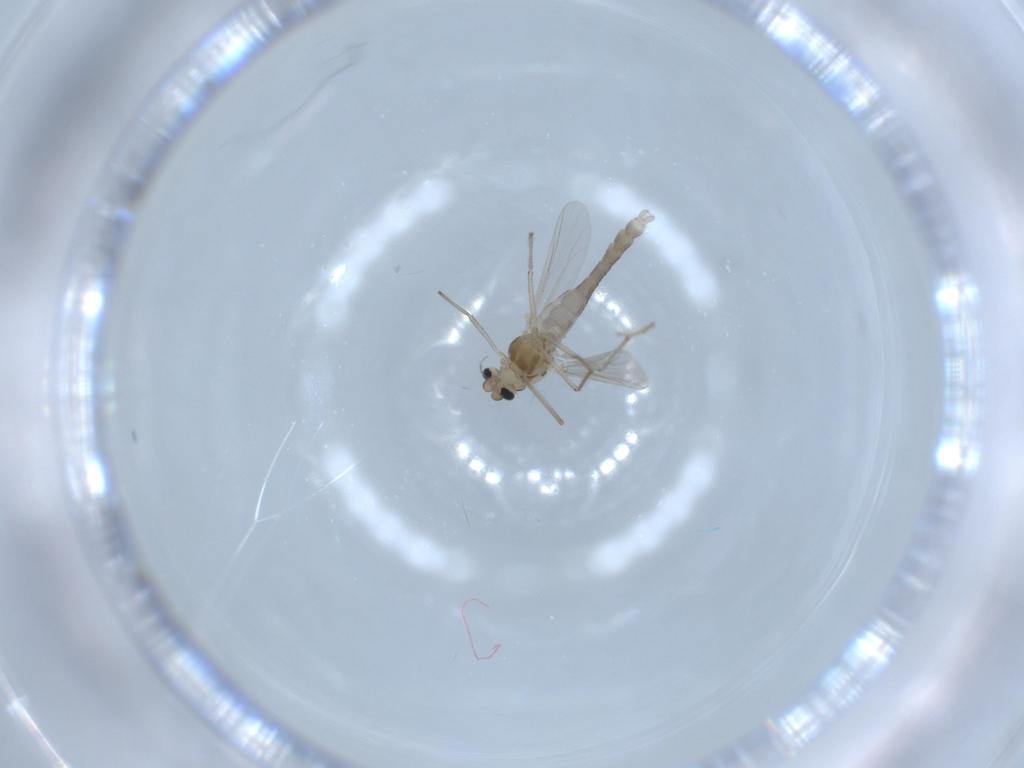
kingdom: Animalia
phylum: Arthropoda
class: Insecta
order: Diptera
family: Chironomidae
